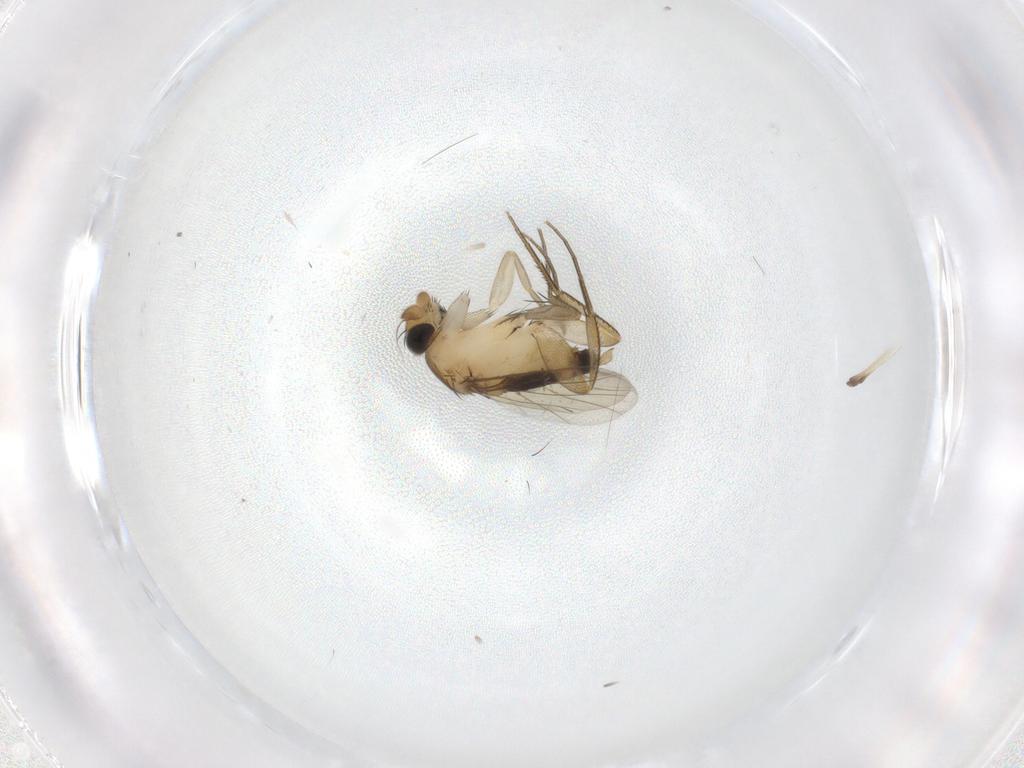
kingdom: Animalia
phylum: Arthropoda
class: Insecta
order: Diptera
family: Phoridae
